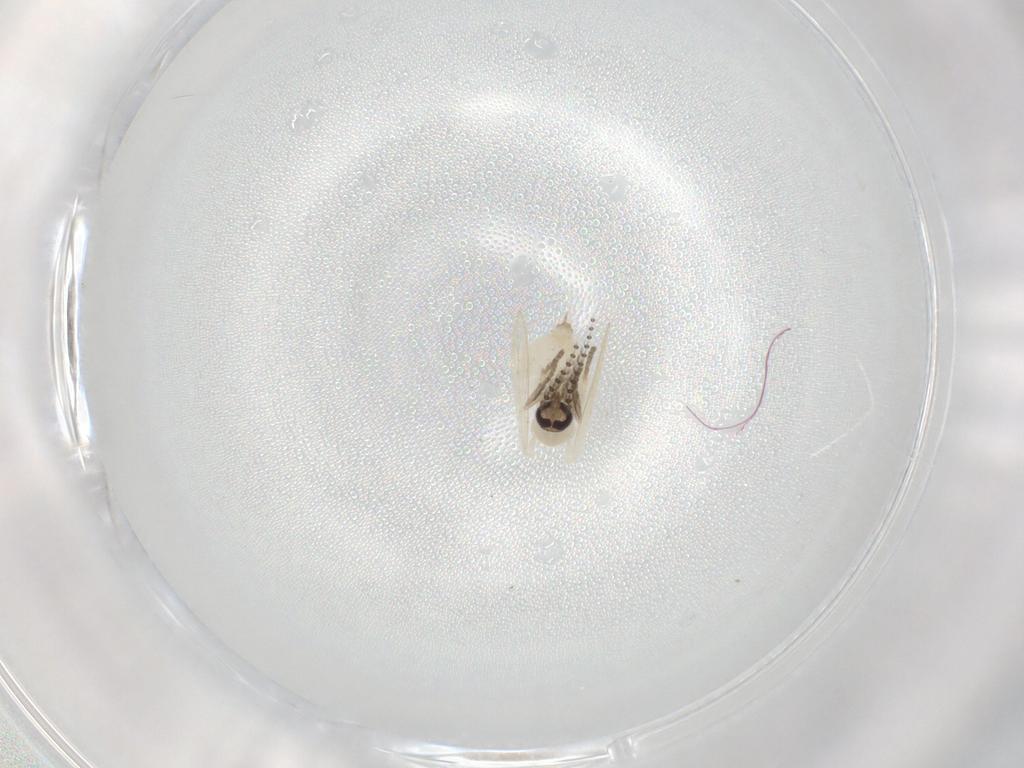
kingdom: Animalia
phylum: Arthropoda
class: Insecta
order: Diptera
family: Psychodidae
